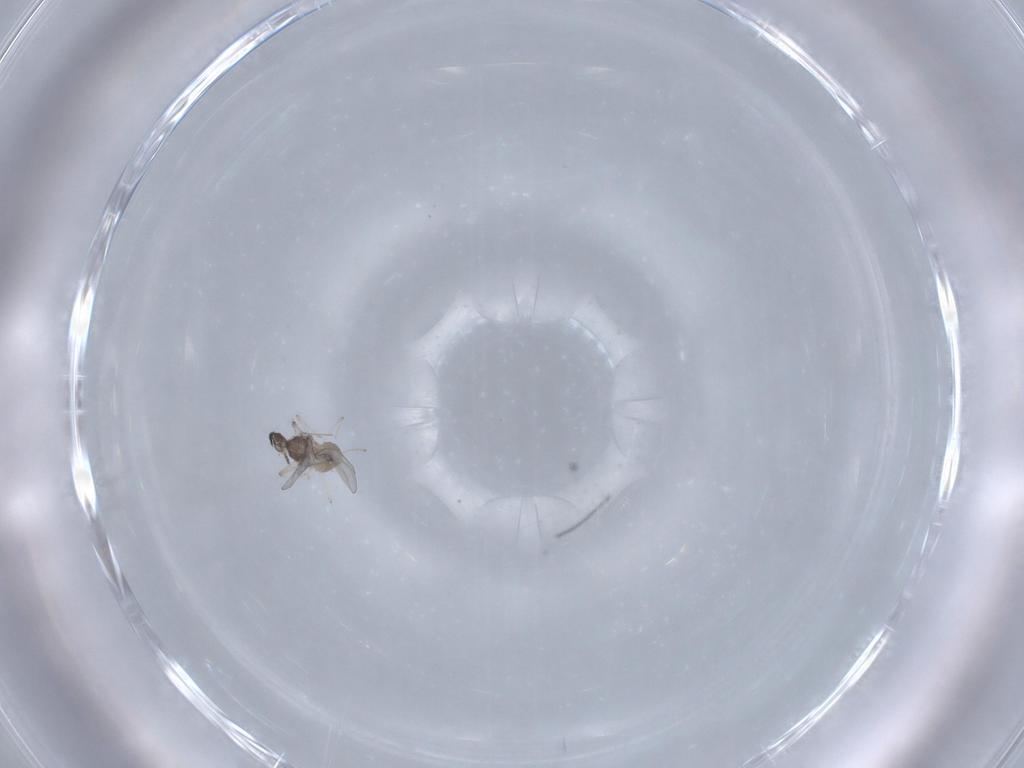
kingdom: Animalia
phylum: Arthropoda
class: Insecta
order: Diptera
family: Cecidomyiidae
